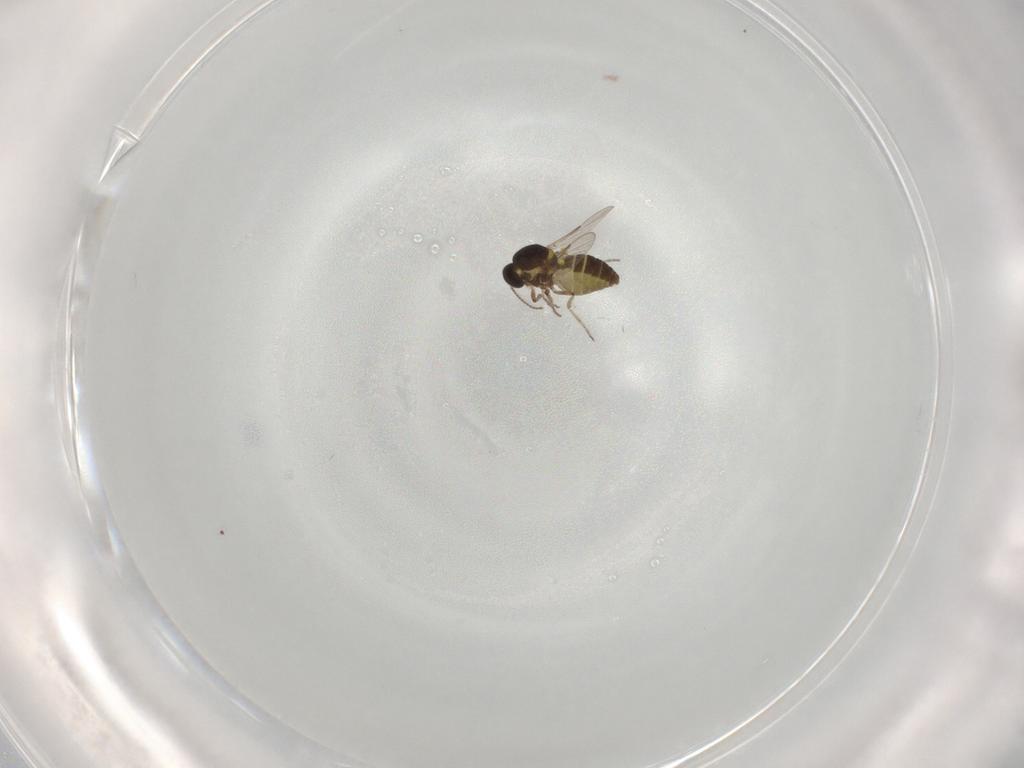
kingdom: Animalia
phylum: Arthropoda
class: Insecta
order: Diptera
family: Ceratopogonidae
